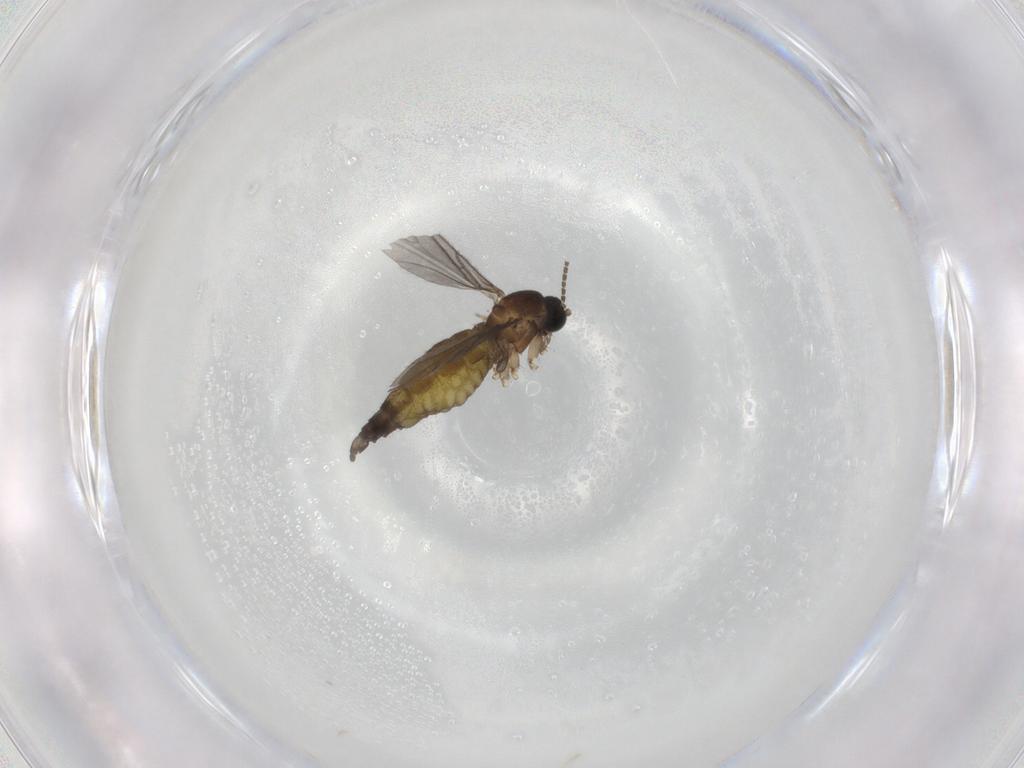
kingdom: Animalia
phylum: Arthropoda
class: Insecta
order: Diptera
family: Sciaridae
